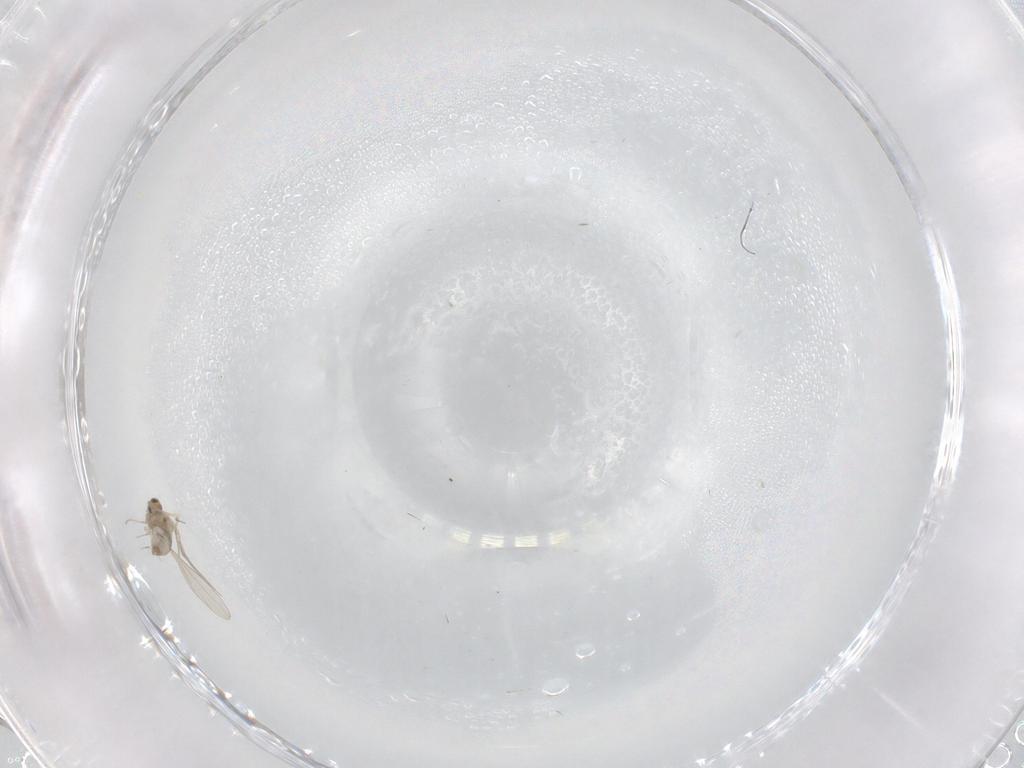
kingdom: Animalia
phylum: Arthropoda
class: Insecta
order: Diptera
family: Cecidomyiidae
